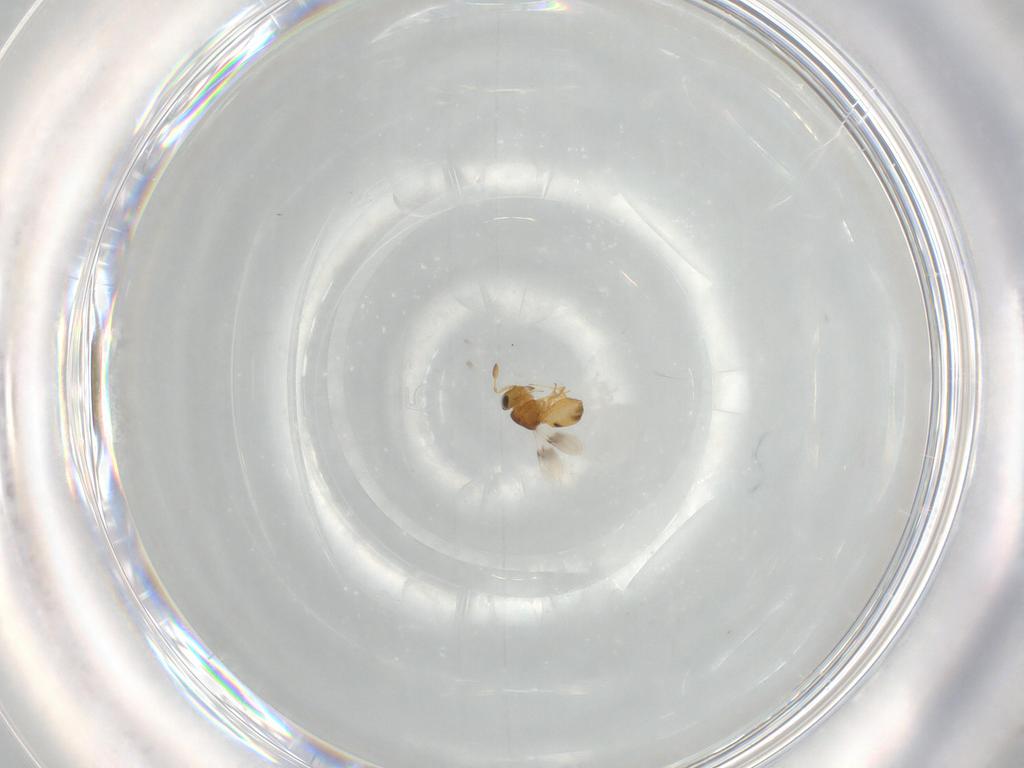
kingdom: Animalia
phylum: Arthropoda
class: Insecta
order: Hymenoptera
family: Scelionidae
